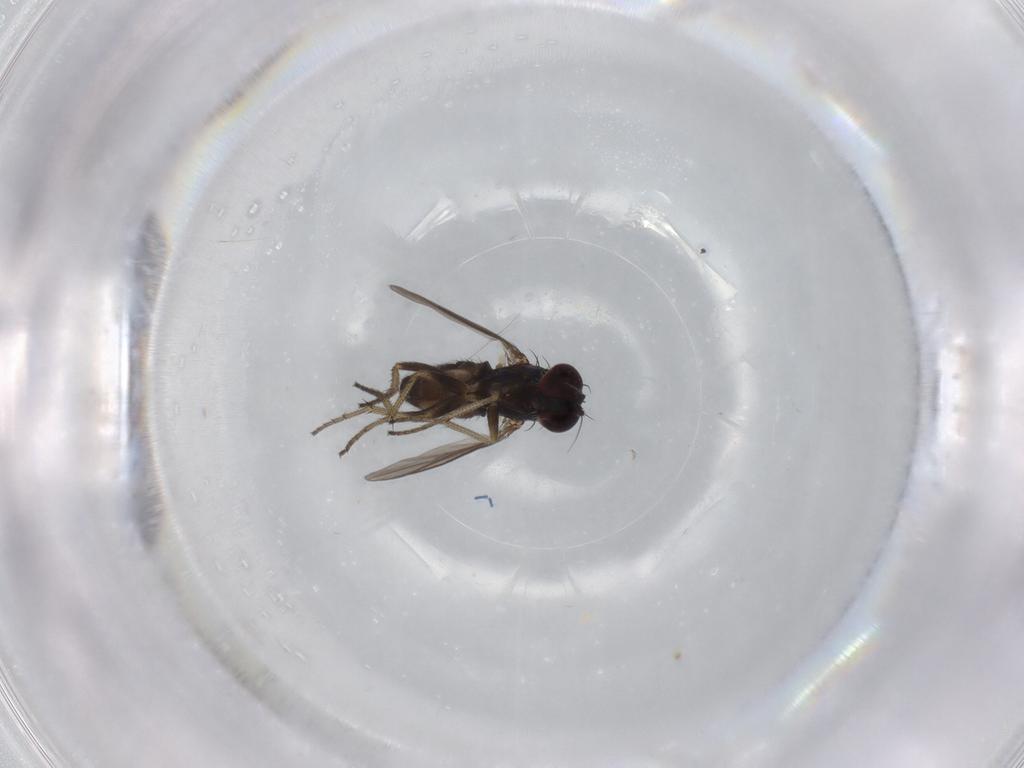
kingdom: Animalia
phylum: Arthropoda
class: Insecta
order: Diptera
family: Dolichopodidae
